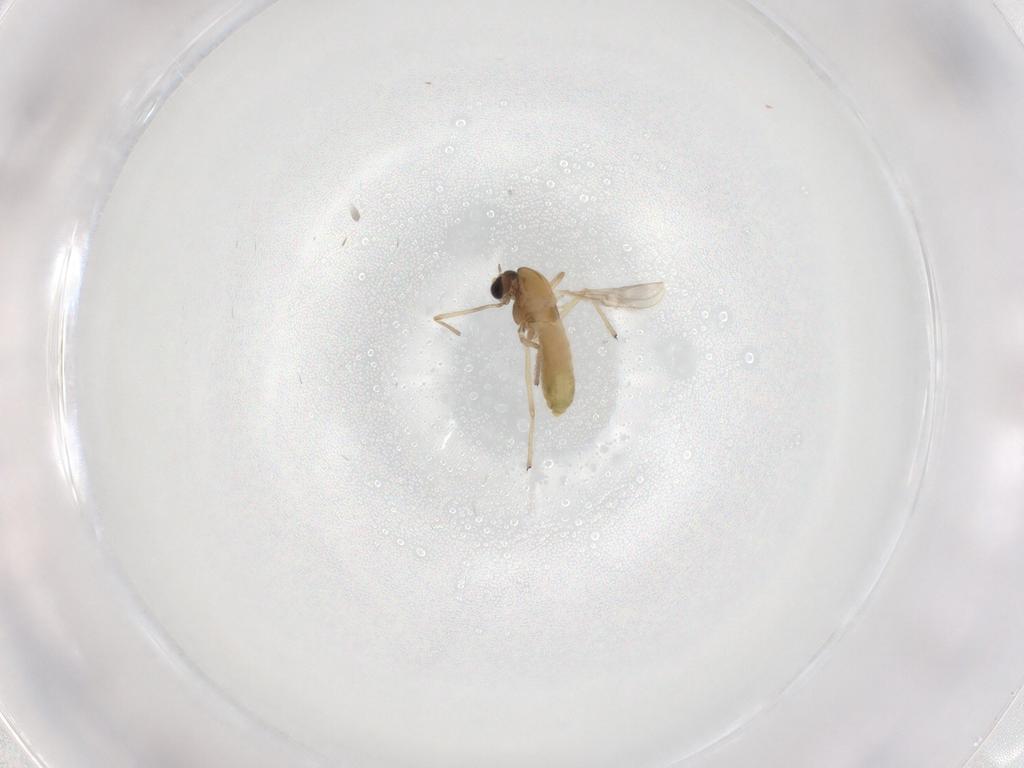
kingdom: Animalia
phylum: Arthropoda
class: Insecta
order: Diptera
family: Chironomidae
